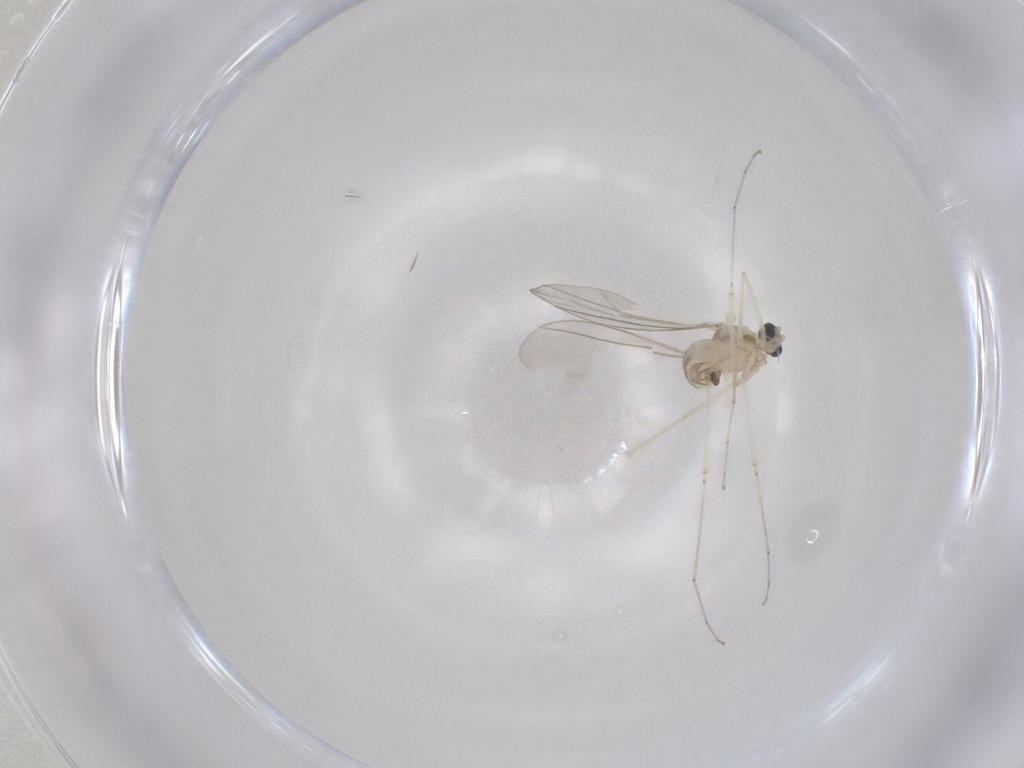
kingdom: Animalia
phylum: Arthropoda
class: Insecta
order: Diptera
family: Cecidomyiidae
